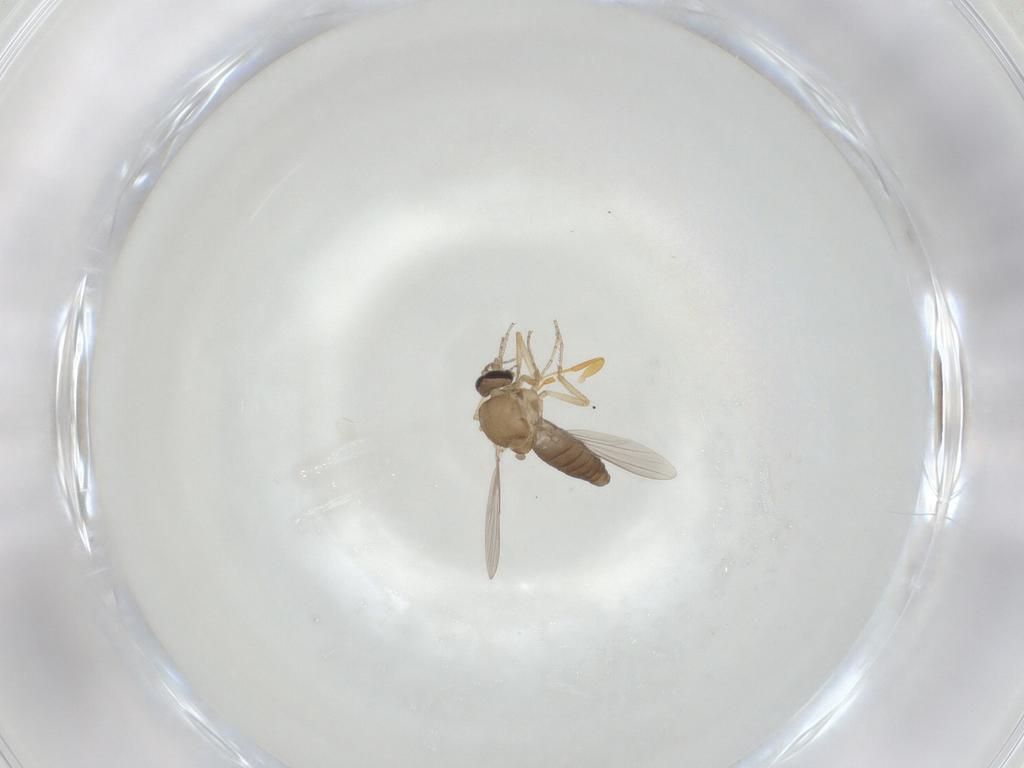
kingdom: Animalia
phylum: Arthropoda
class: Insecta
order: Diptera
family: Ceratopogonidae
